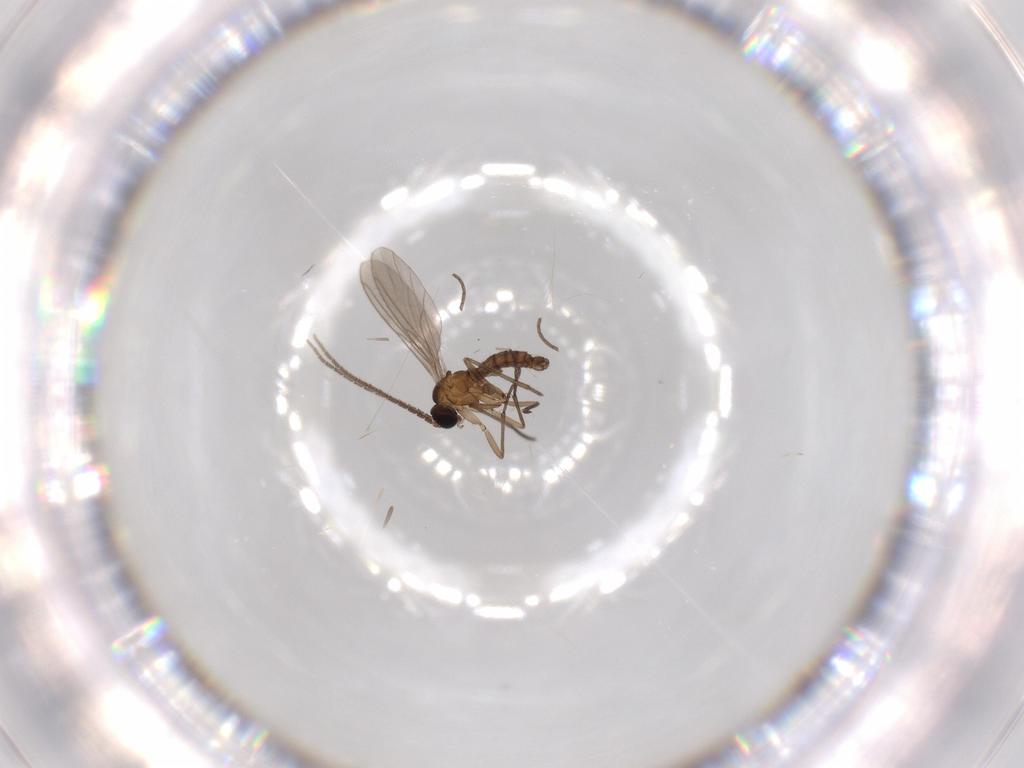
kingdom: Animalia
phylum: Arthropoda
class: Insecta
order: Diptera
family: Sciaridae
